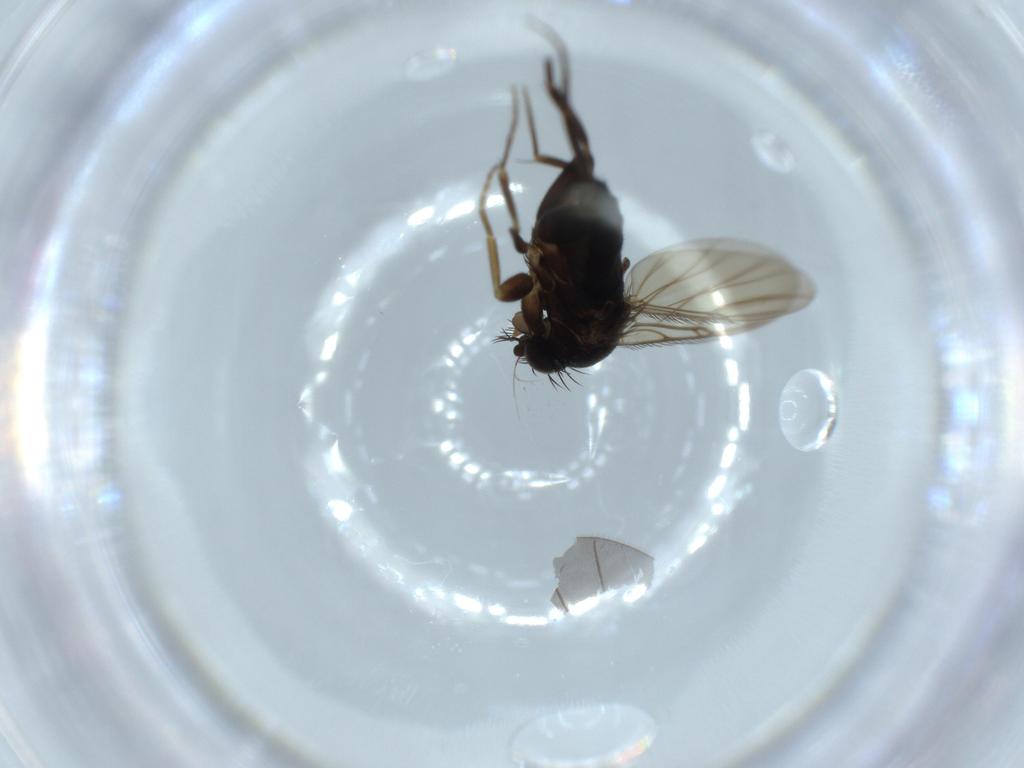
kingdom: Animalia
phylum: Arthropoda
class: Insecta
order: Diptera
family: Phoridae
